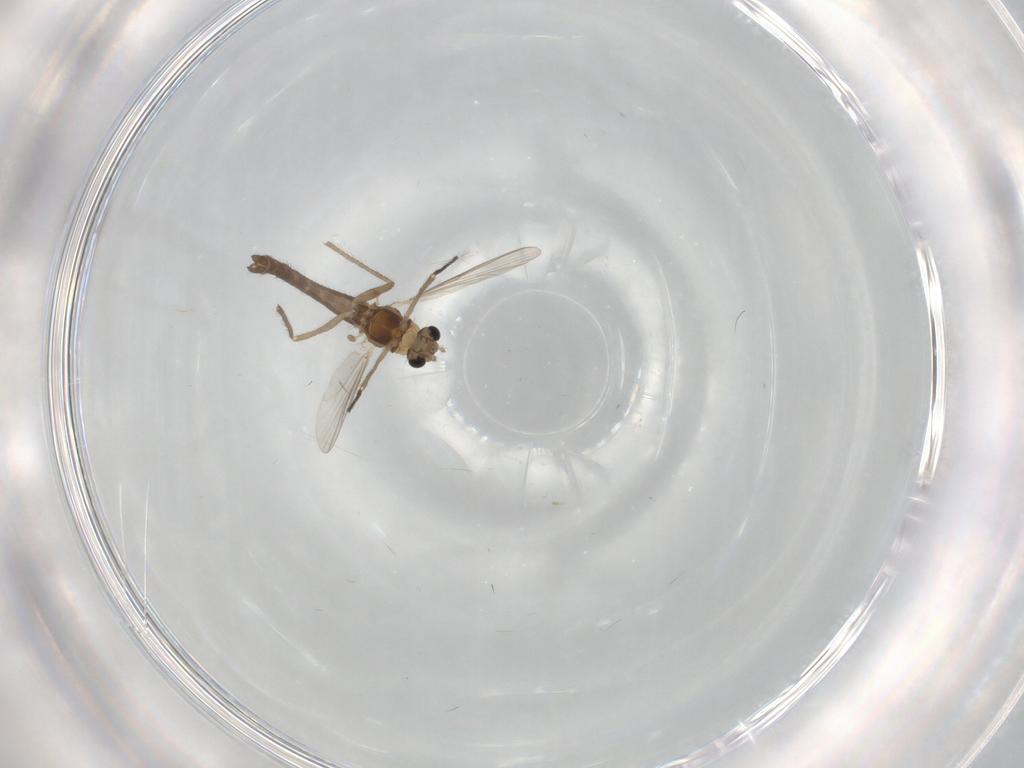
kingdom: Animalia
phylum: Arthropoda
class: Insecta
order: Diptera
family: Chironomidae
